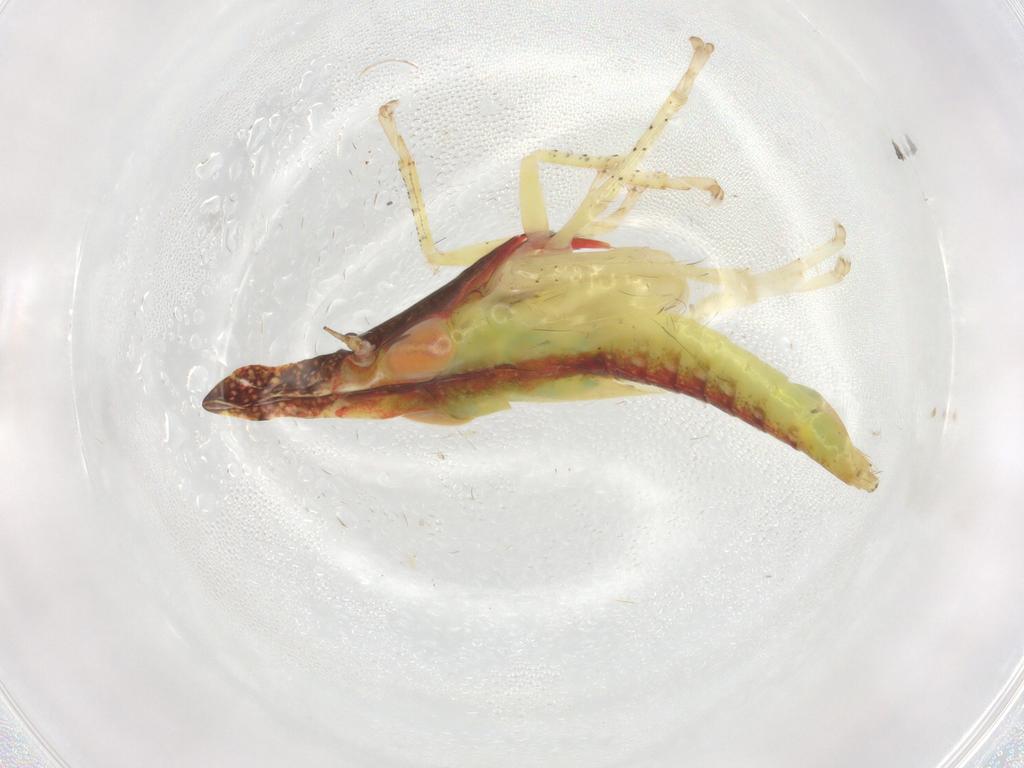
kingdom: Animalia
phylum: Arthropoda
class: Insecta
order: Hemiptera
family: Cicadellidae
